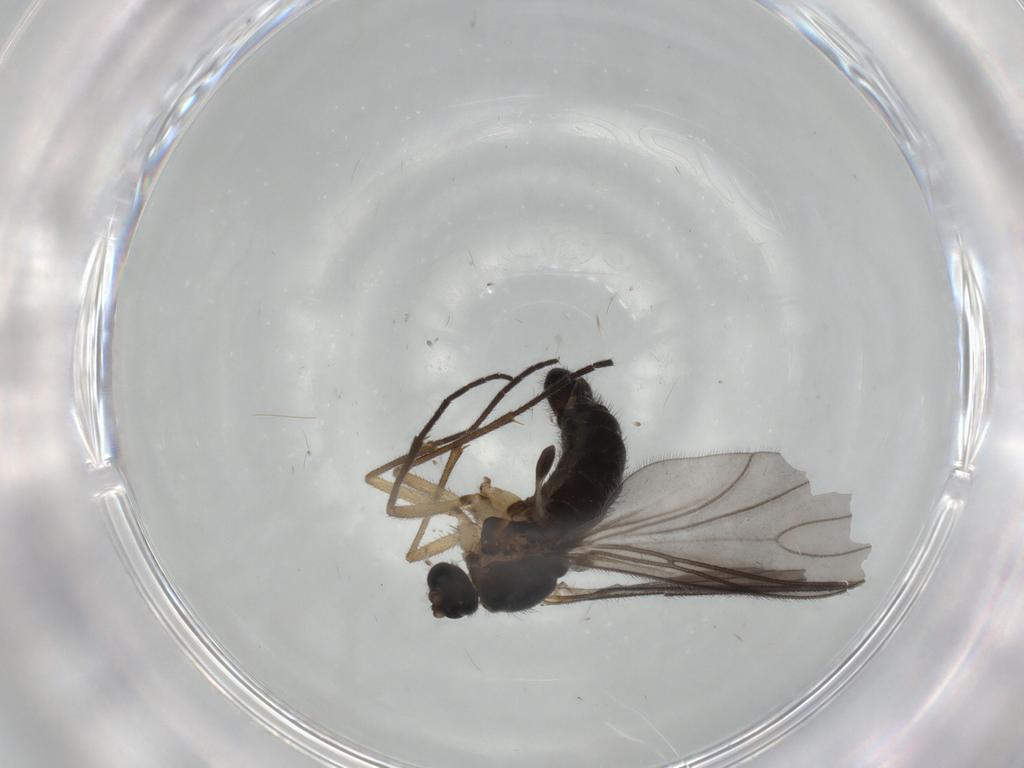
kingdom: Animalia
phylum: Arthropoda
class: Insecta
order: Diptera
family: Sciaridae
